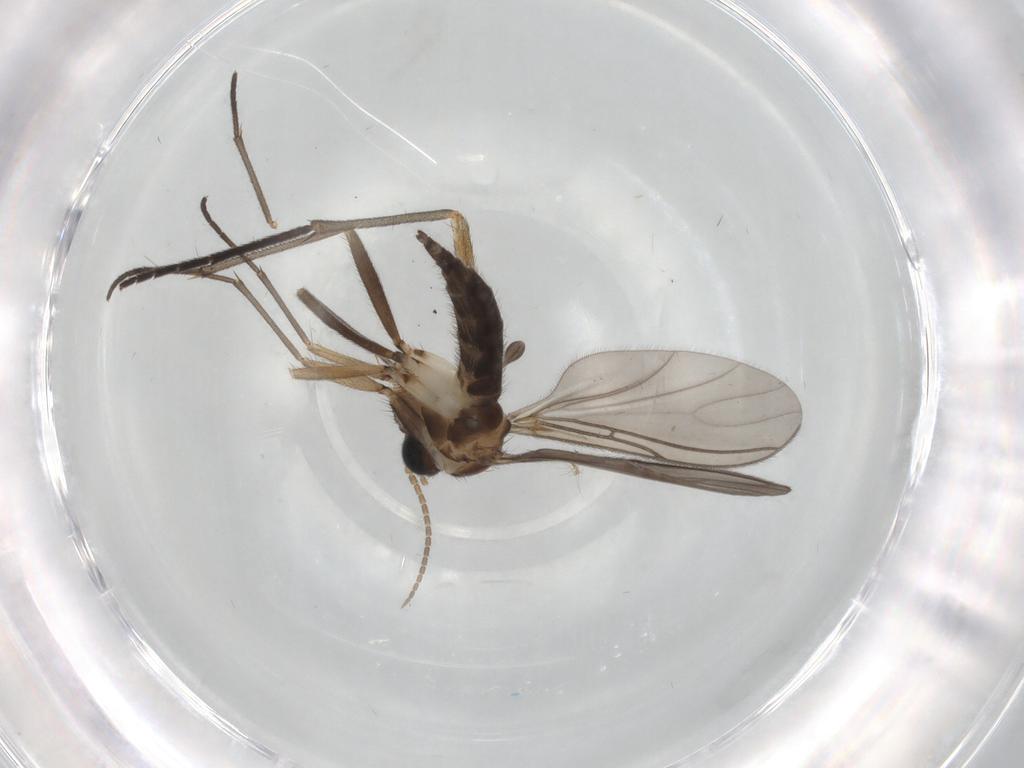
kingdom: Animalia
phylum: Arthropoda
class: Insecta
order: Diptera
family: Sciaridae
